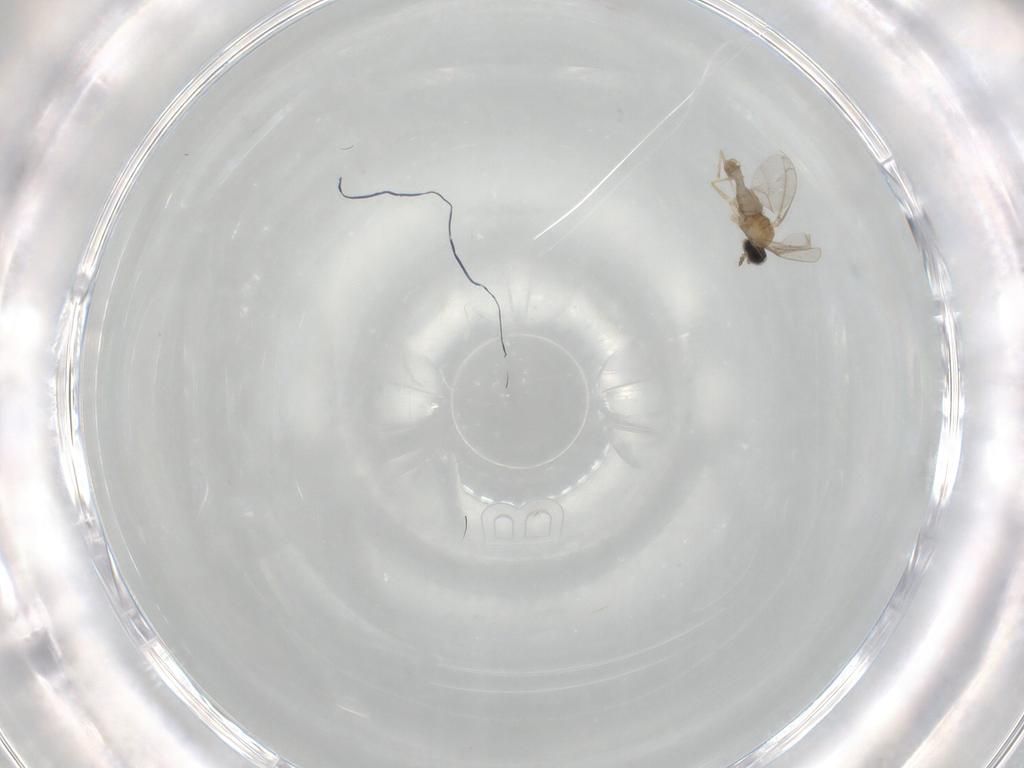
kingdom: Animalia
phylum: Arthropoda
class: Insecta
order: Diptera
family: Cecidomyiidae
